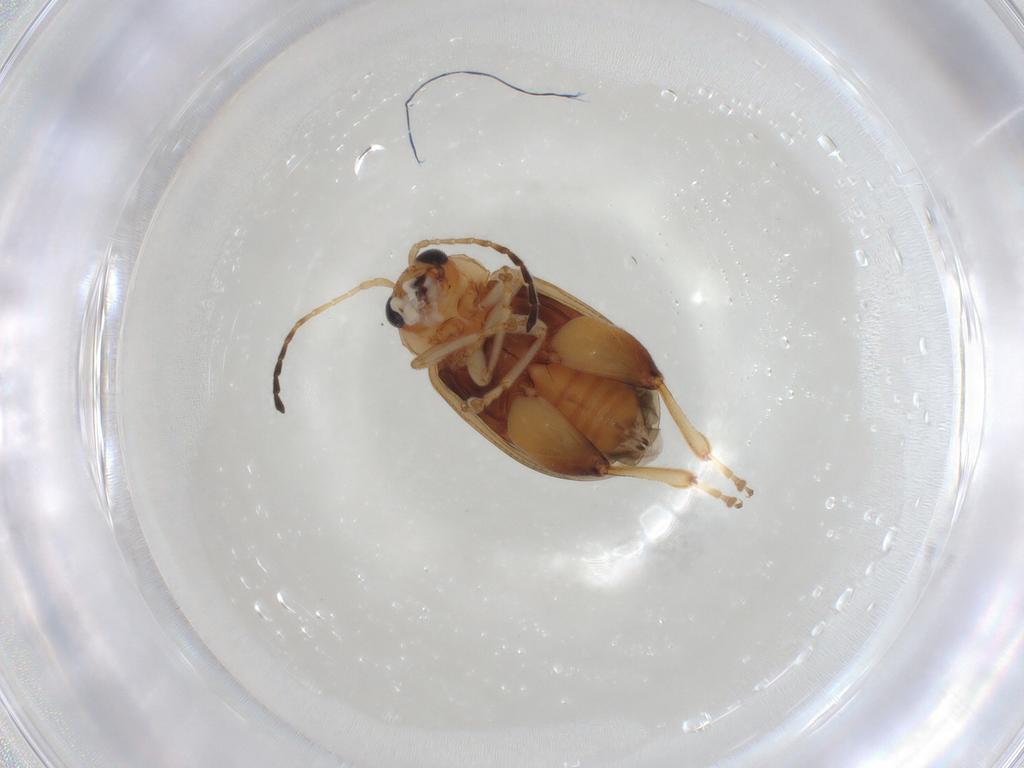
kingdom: Animalia
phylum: Arthropoda
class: Insecta
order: Coleoptera
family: Chrysomelidae
